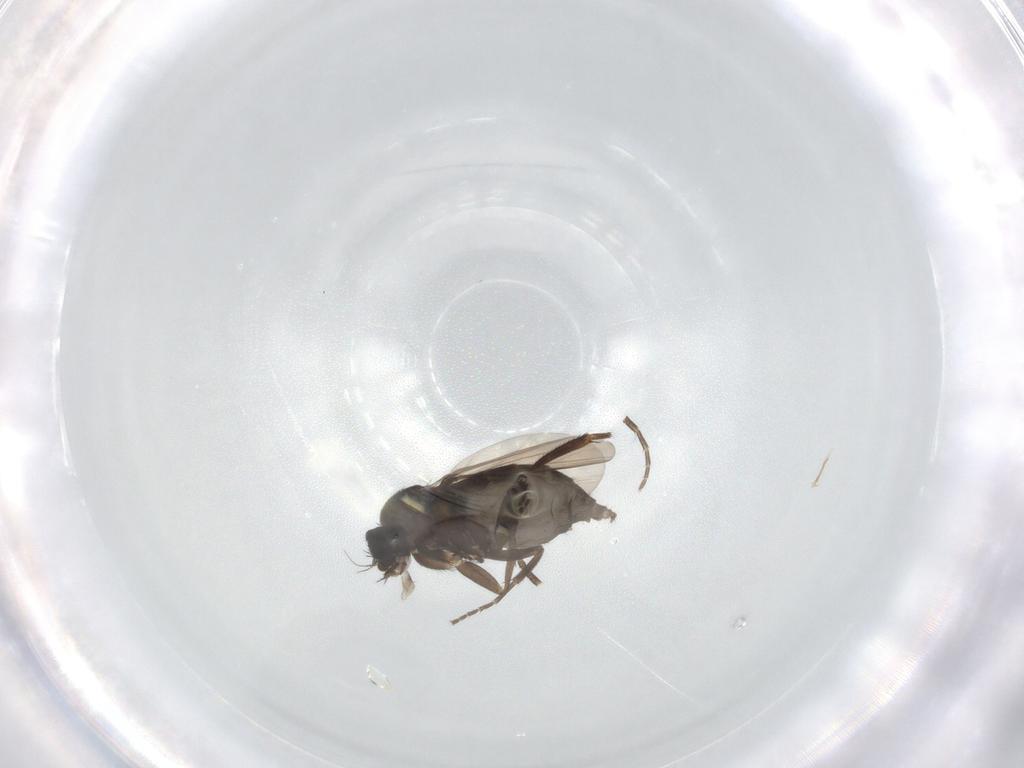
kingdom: Animalia
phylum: Arthropoda
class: Insecta
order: Diptera
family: Phoridae
